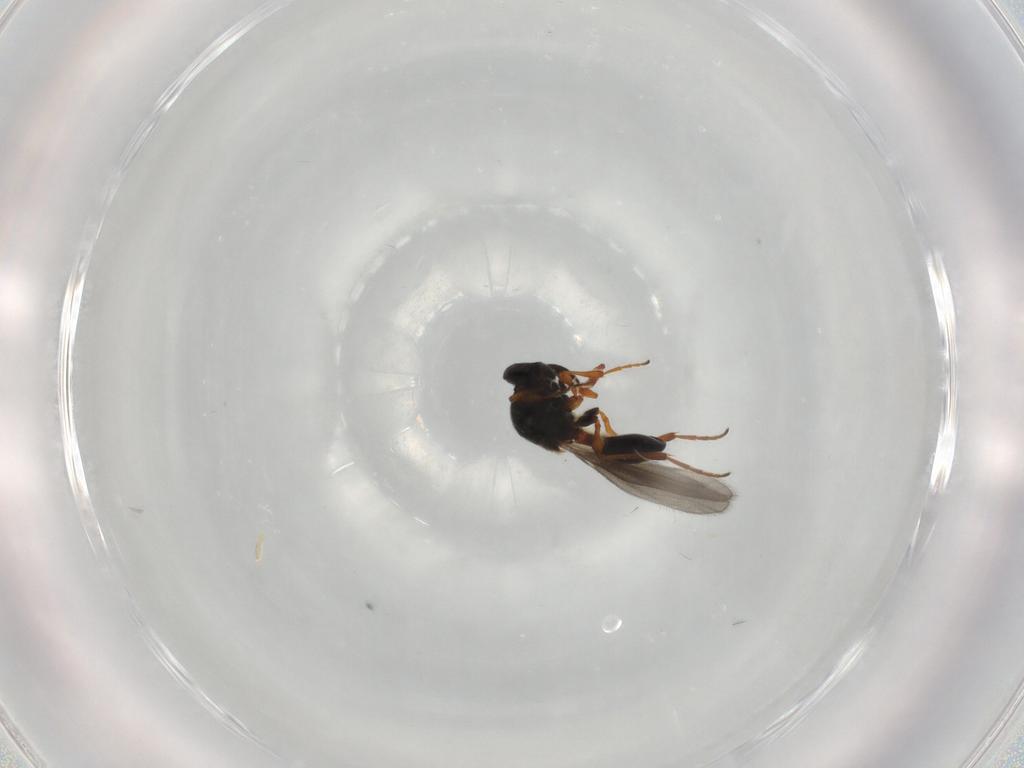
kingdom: Animalia
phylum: Arthropoda
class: Insecta
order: Hymenoptera
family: Platygastridae
